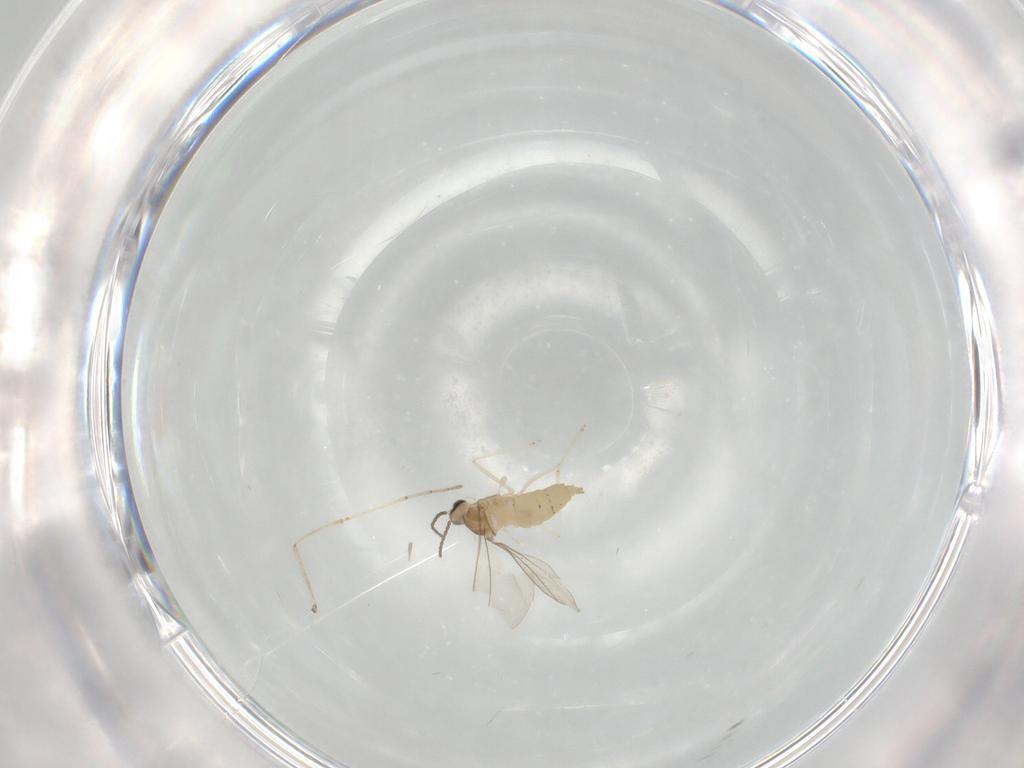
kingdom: Animalia
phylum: Arthropoda
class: Insecta
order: Diptera
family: Cecidomyiidae
